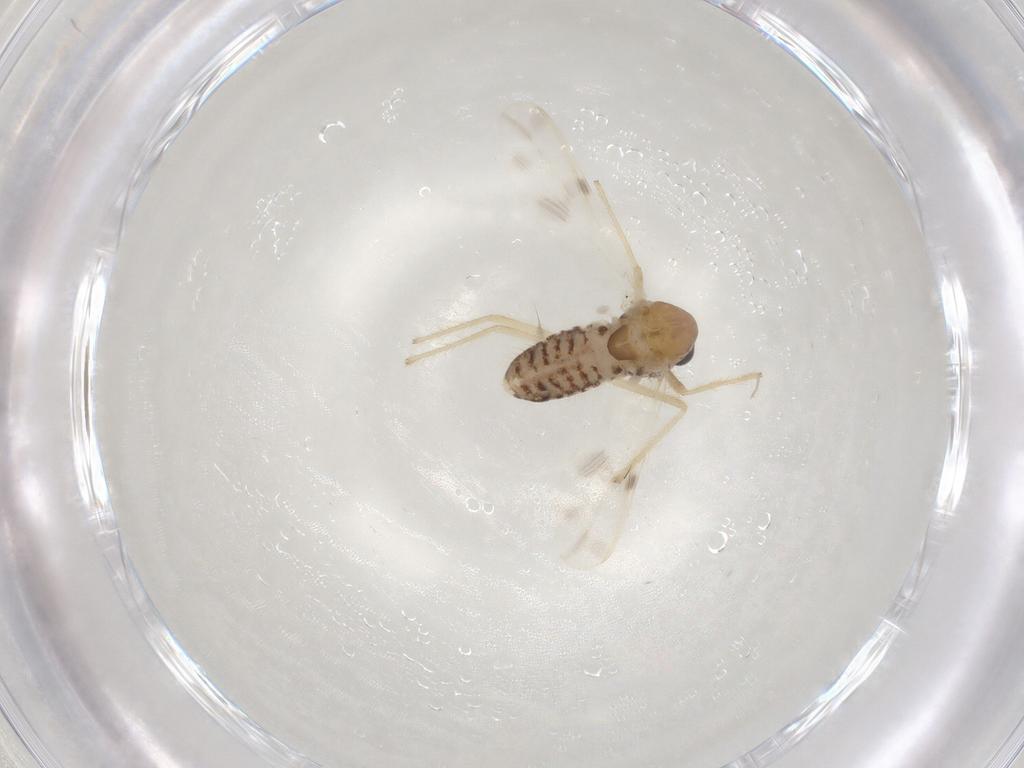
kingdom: Animalia
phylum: Arthropoda
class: Insecta
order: Diptera
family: Chironomidae
